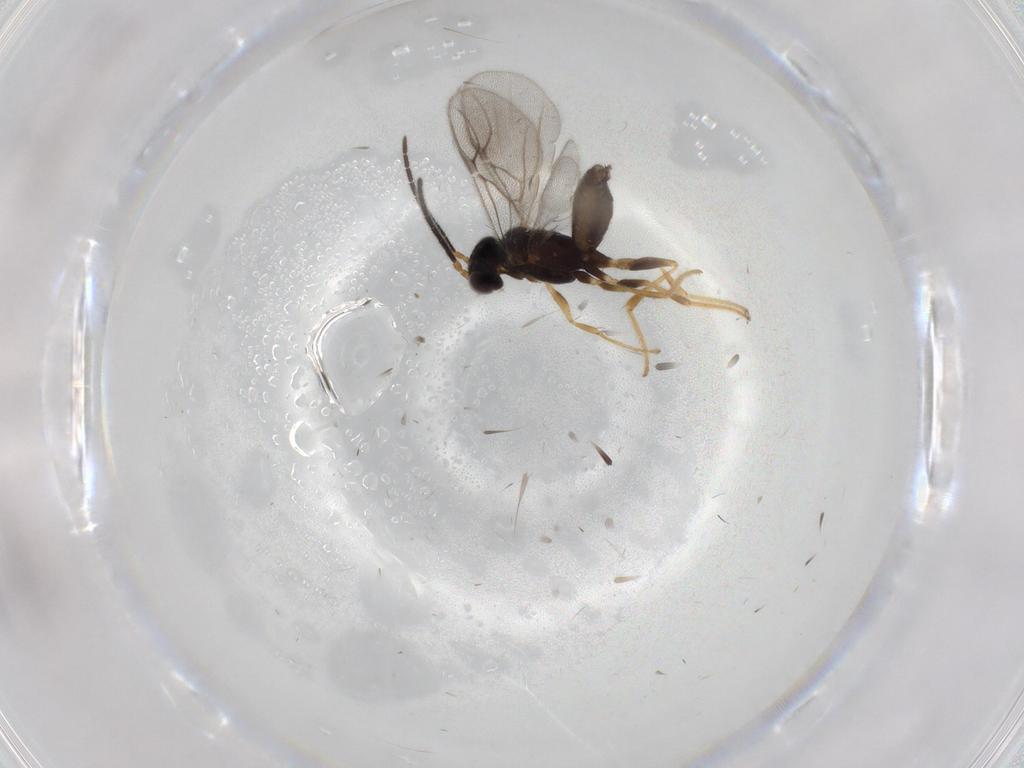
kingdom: Animalia
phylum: Arthropoda
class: Insecta
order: Hymenoptera
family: Dryinidae
